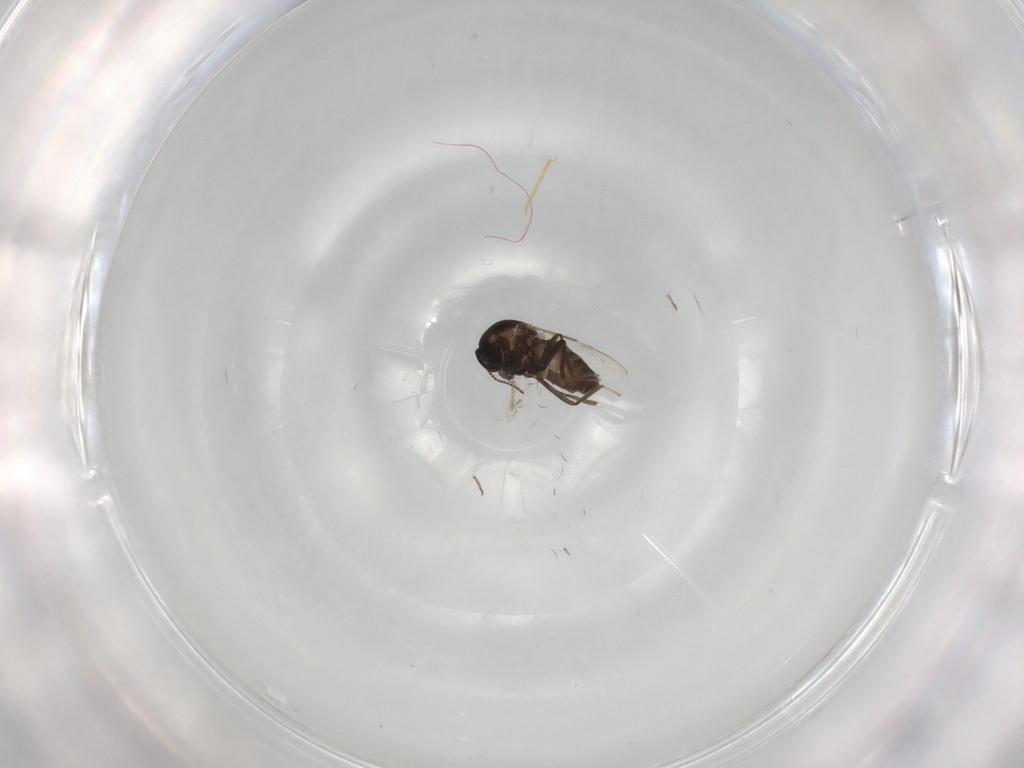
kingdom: Animalia
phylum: Arthropoda
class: Insecta
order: Diptera
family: Ceratopogonidae
